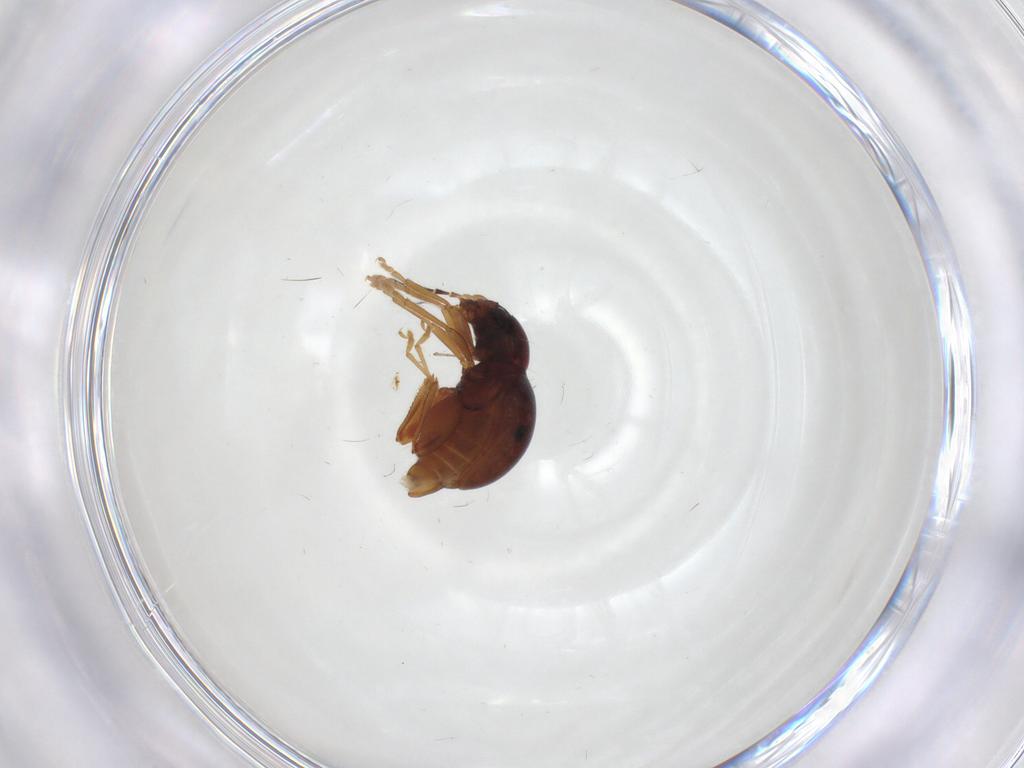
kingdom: Animalia
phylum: Arthropoda
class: Insecta
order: Coleoptera
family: Chrysomelidae
